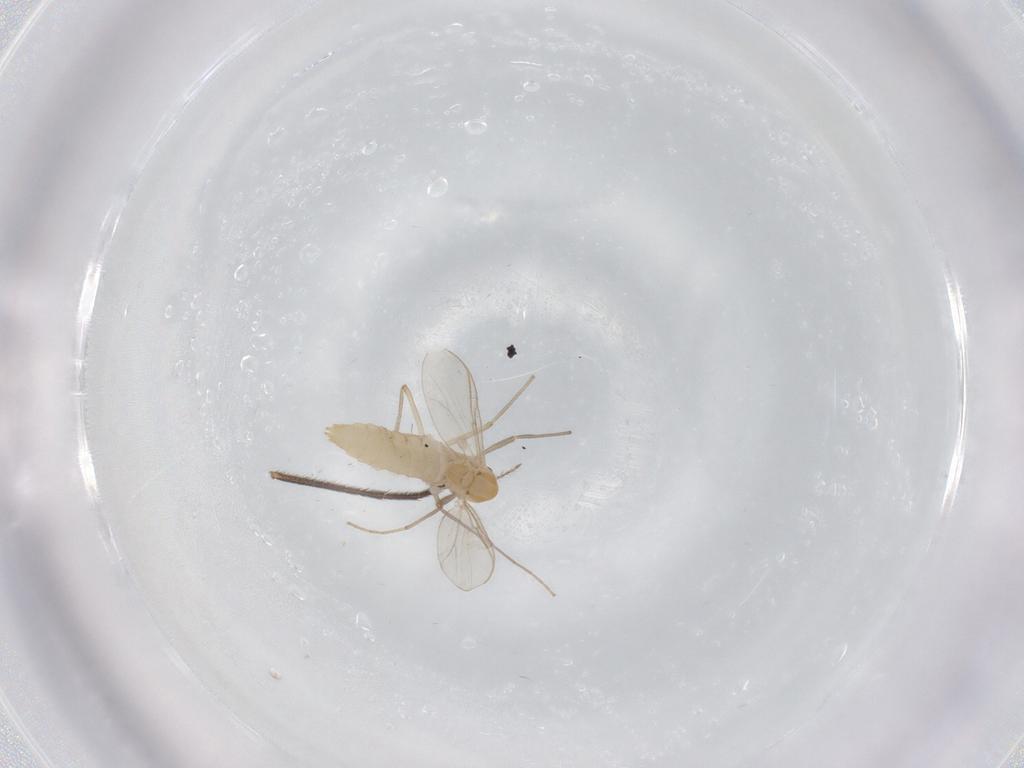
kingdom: Animalia
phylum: Arthropoda
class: Insecta
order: Diptera
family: Chironomidae
